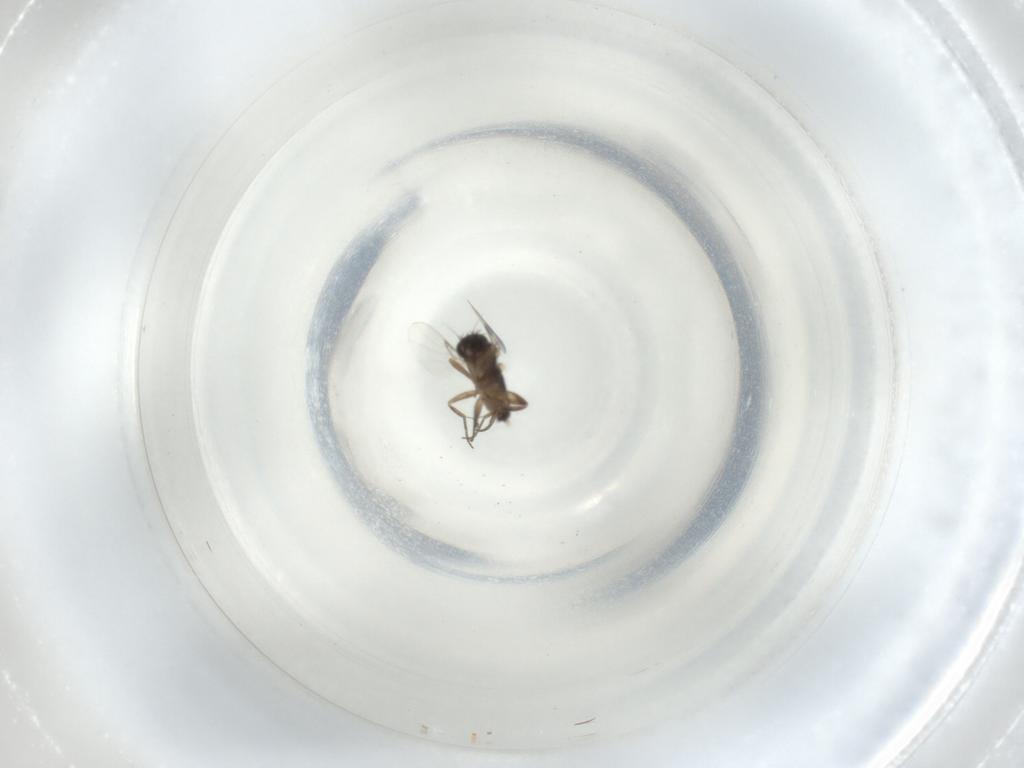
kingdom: Animalia
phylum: Arthropoda
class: Insecta
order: Diptera
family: Phoridae
